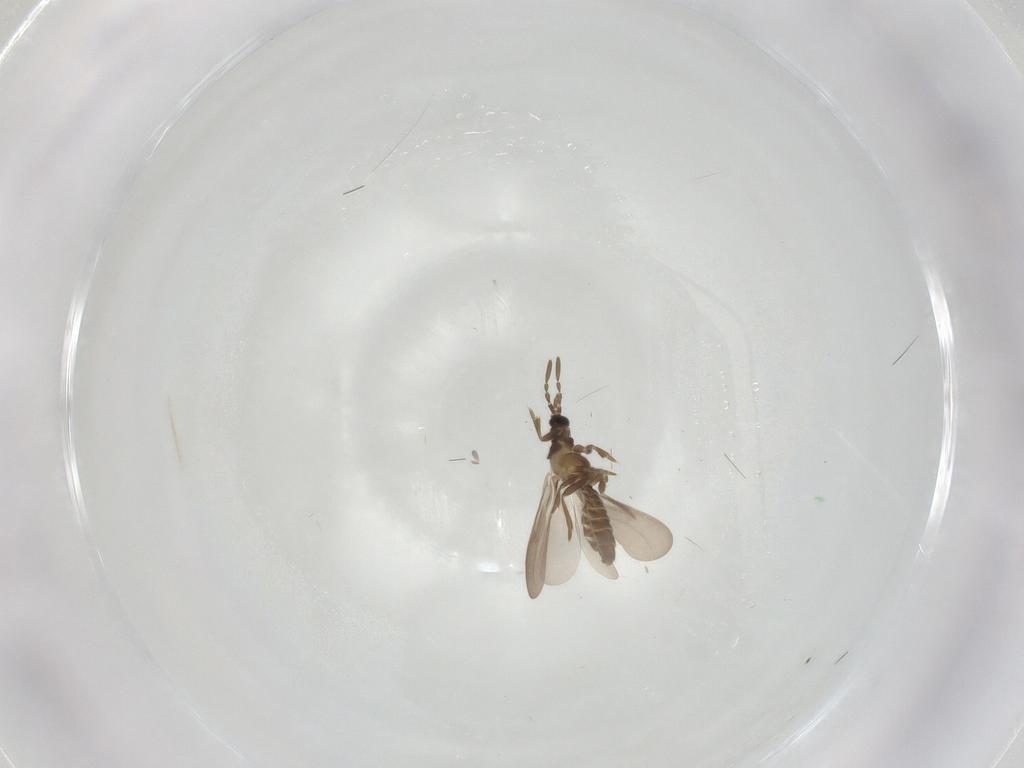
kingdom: Animalia
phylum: Arthropoda
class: Insecta
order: Hemiptera
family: Enicocephalidae
